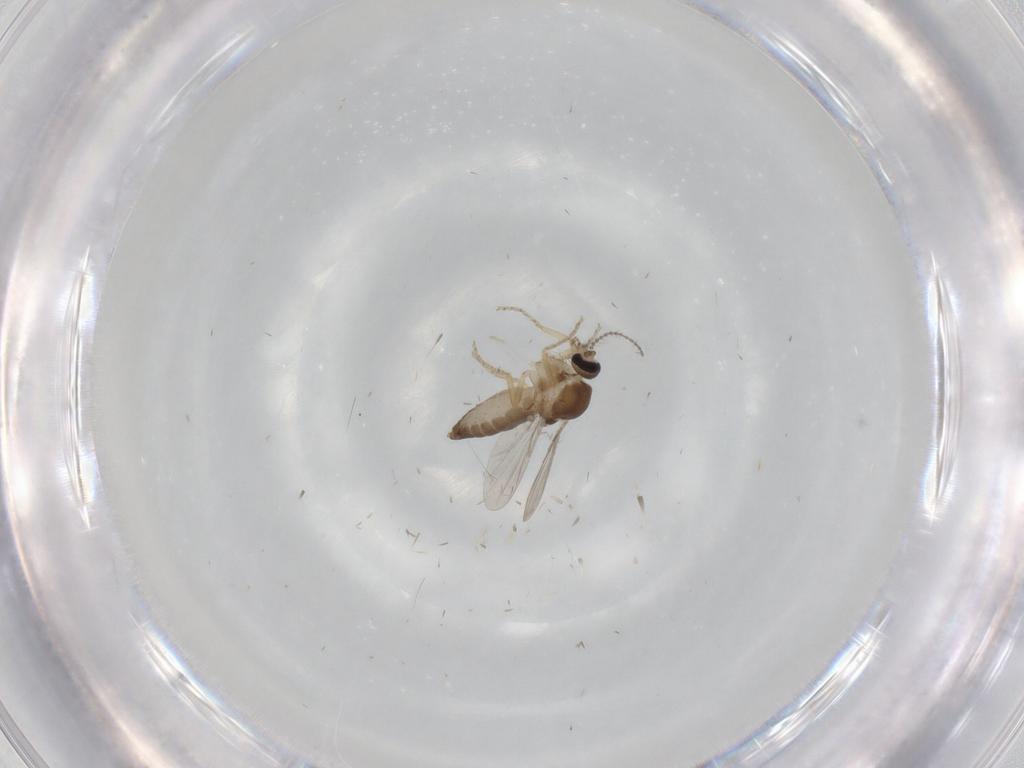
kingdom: Animalia
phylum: Arthropoda
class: Insecta
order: Diptera
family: Ceratopogonidae
